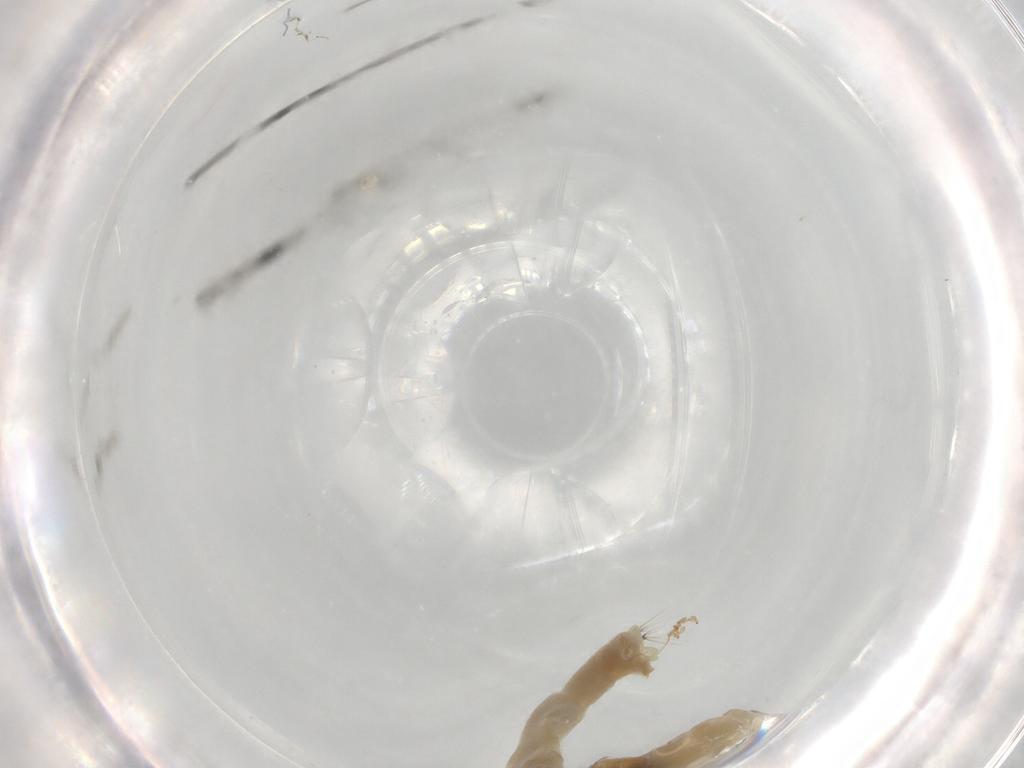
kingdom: Animalia
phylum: Arthropoda
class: Insecta
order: Diptera
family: Chironomidae
